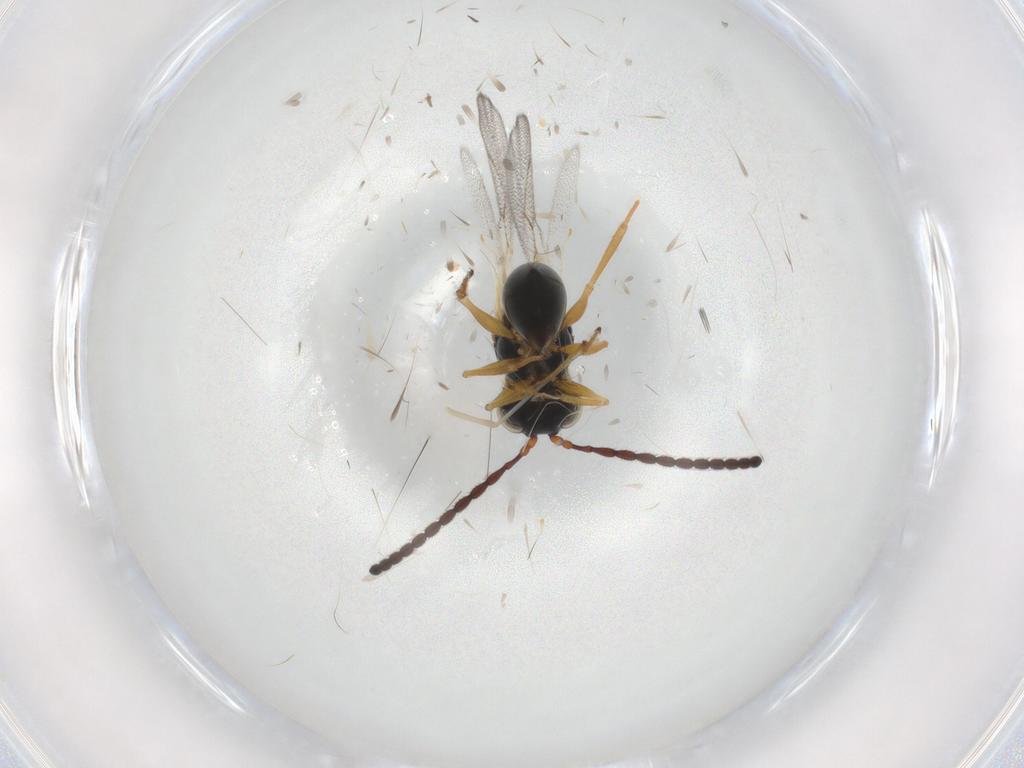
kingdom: Animalia
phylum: Arthropoda
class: Insecta
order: Hymenoptera
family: Figitidae
